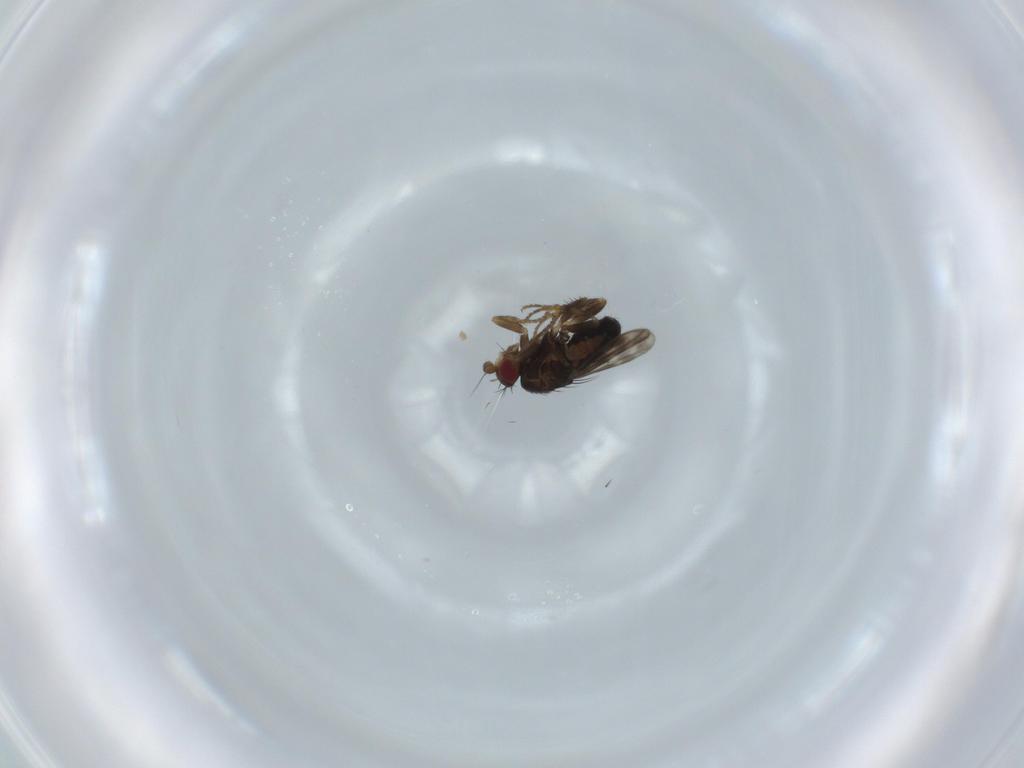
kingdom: Animalia
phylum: Arthropoda
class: Insecta
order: Diptera
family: Sphaeroceridae
